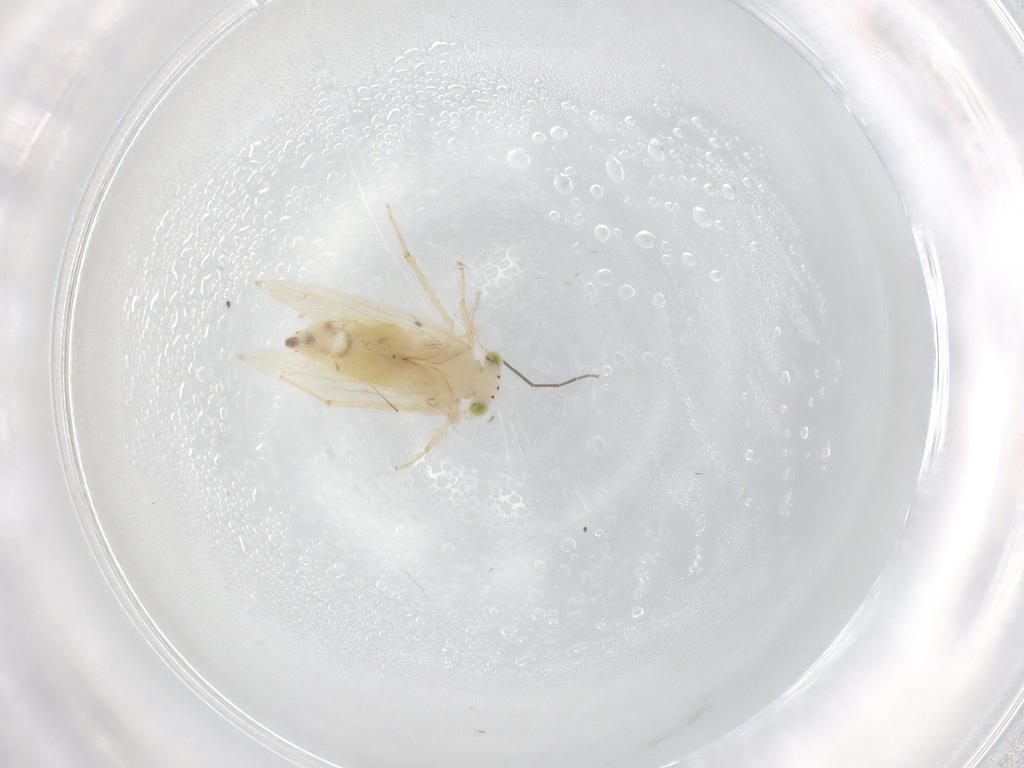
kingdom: Animalia
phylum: Arthropoda
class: Insecta
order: Psocodea
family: Lepidopsocidae
